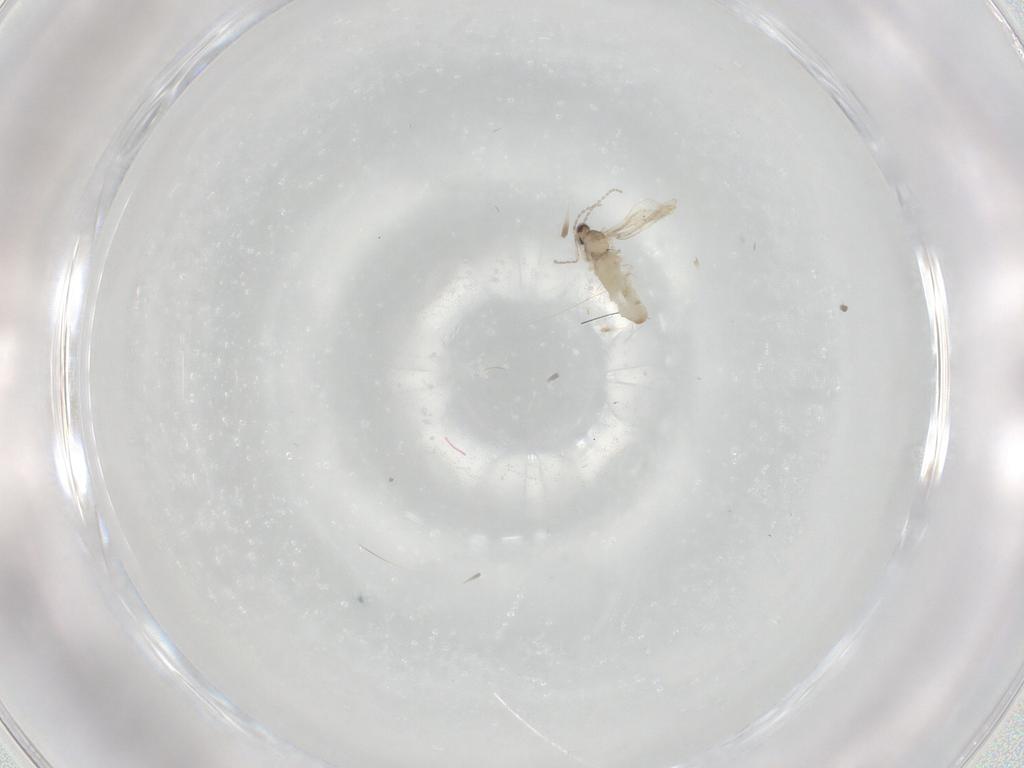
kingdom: Animalia
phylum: Arthropoda
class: Insecta
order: Diptera
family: Cecidomyiidae
